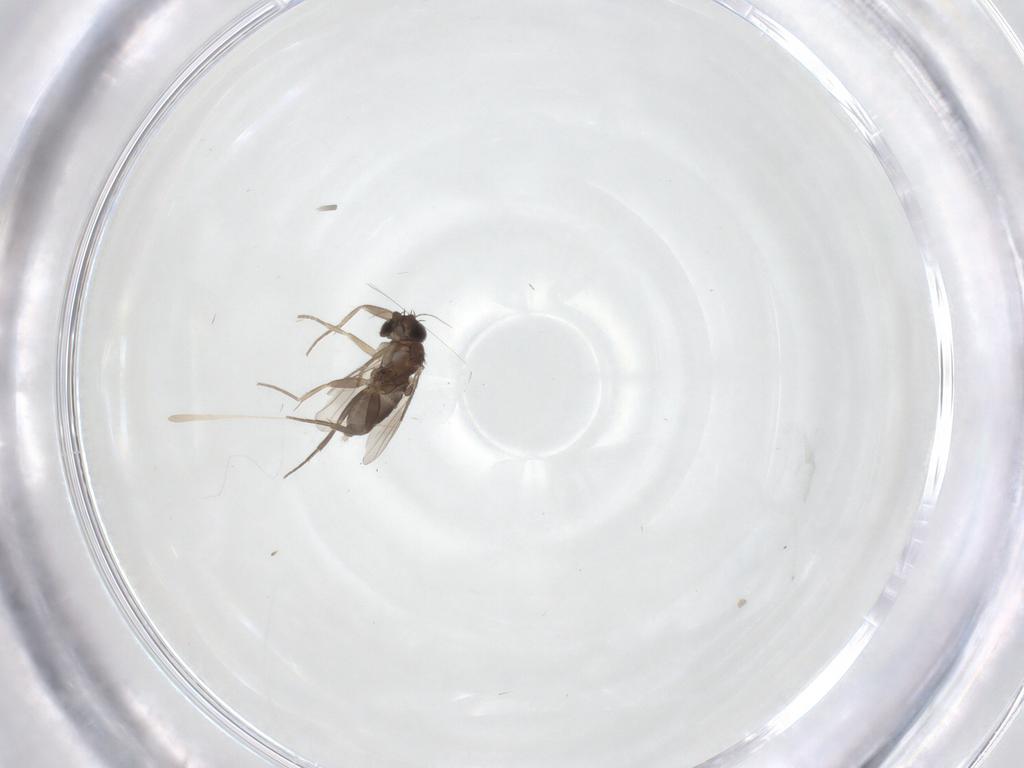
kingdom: Animalia
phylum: Arthropoda
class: Insecta
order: Diptera
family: Phoridae
